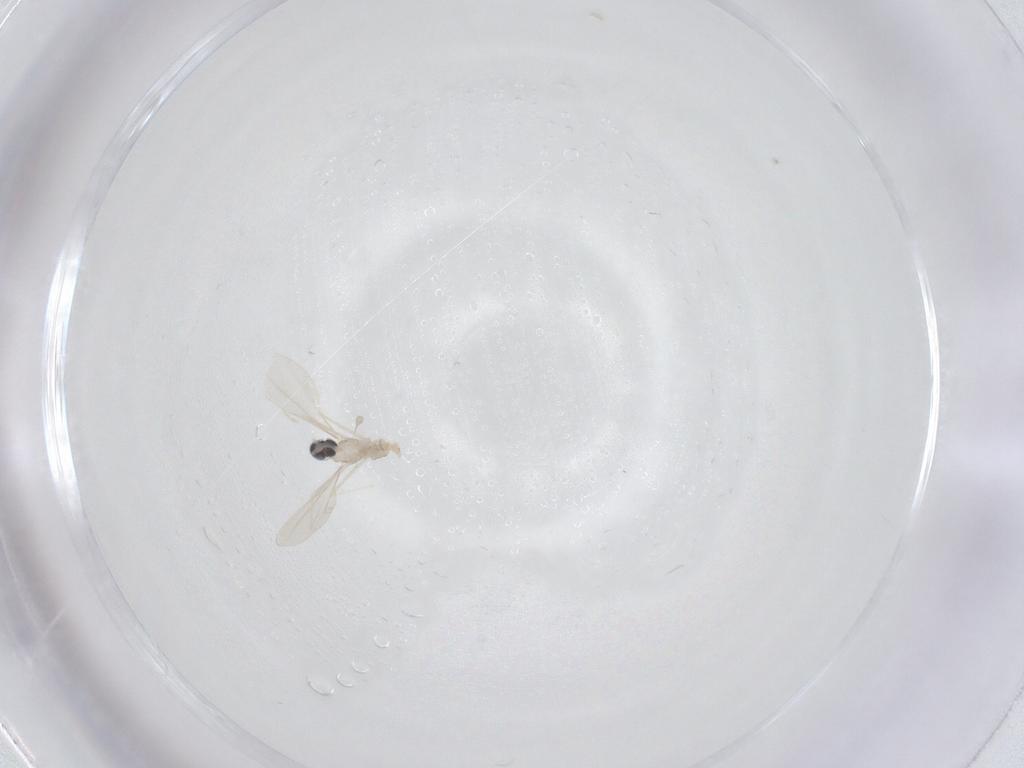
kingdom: Animalia
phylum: Arthropoda
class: Insecta
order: Diptera
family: Cecidomyiidae
